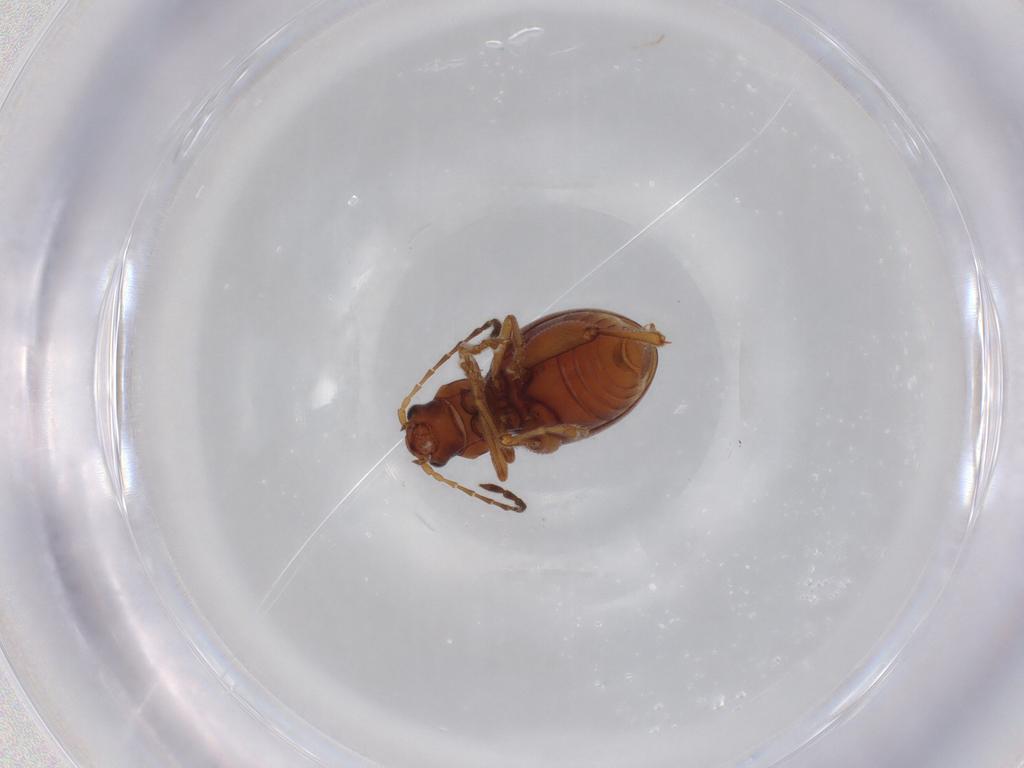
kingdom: Animalia
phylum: Arthropoda
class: Insecta
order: Coleoptera
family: Chrysomelidae
